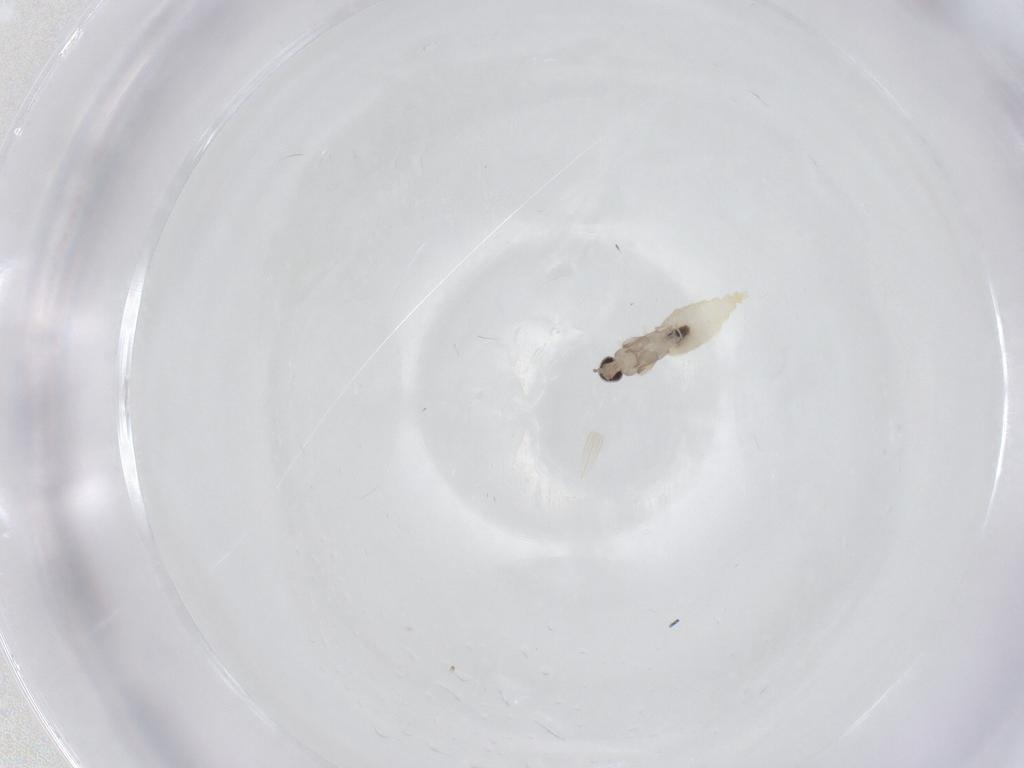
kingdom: Animalia
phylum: Arthropoda
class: Insecta
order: Diptera
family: Cecidomyiidae
